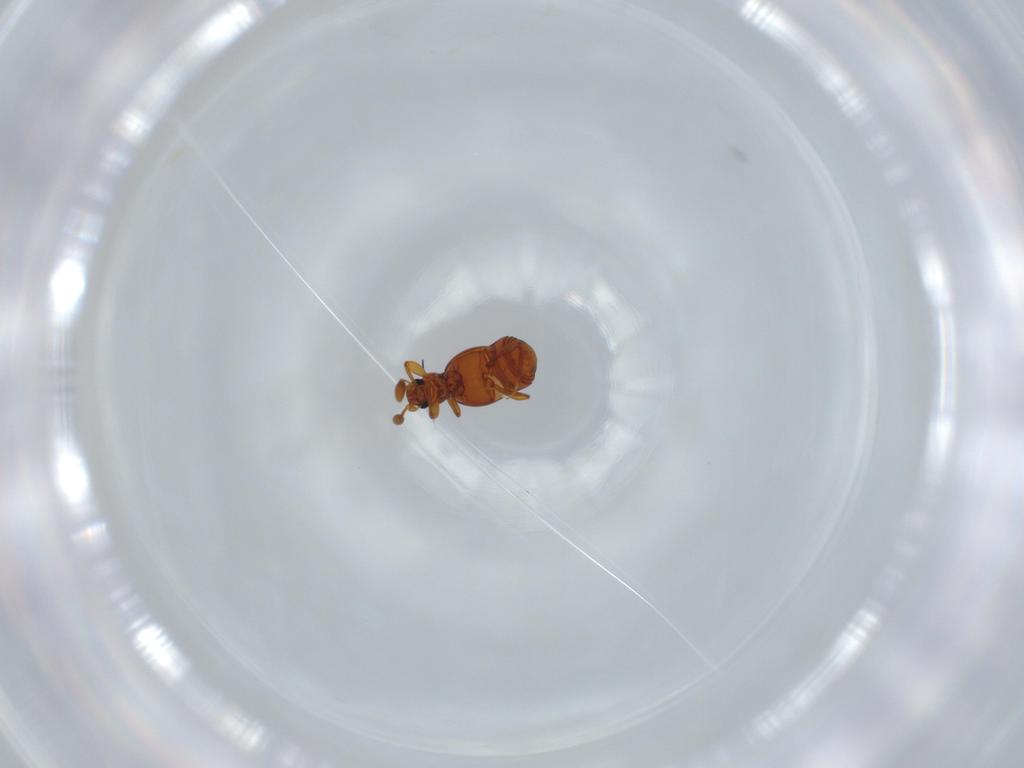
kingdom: Animalia
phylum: Arthropoda
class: Insecta
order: Coleoptera
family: Staphylinidae
